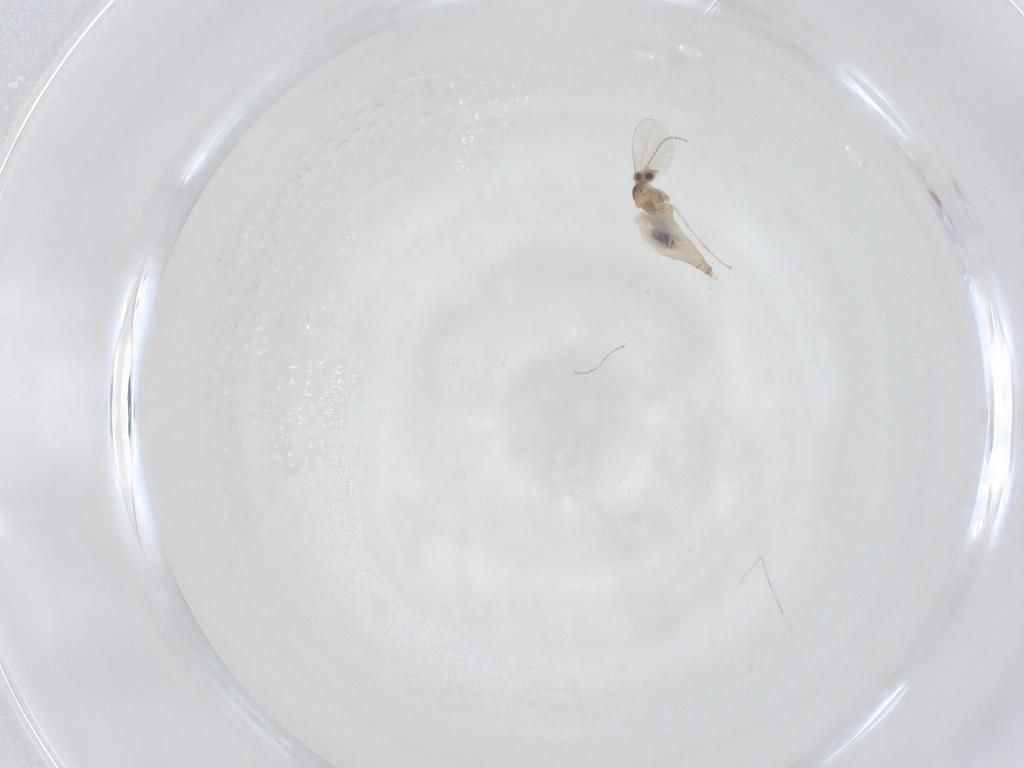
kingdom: Animalia
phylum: Arthropoda
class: Insecta
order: Diptera
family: Cecidomyiidae
